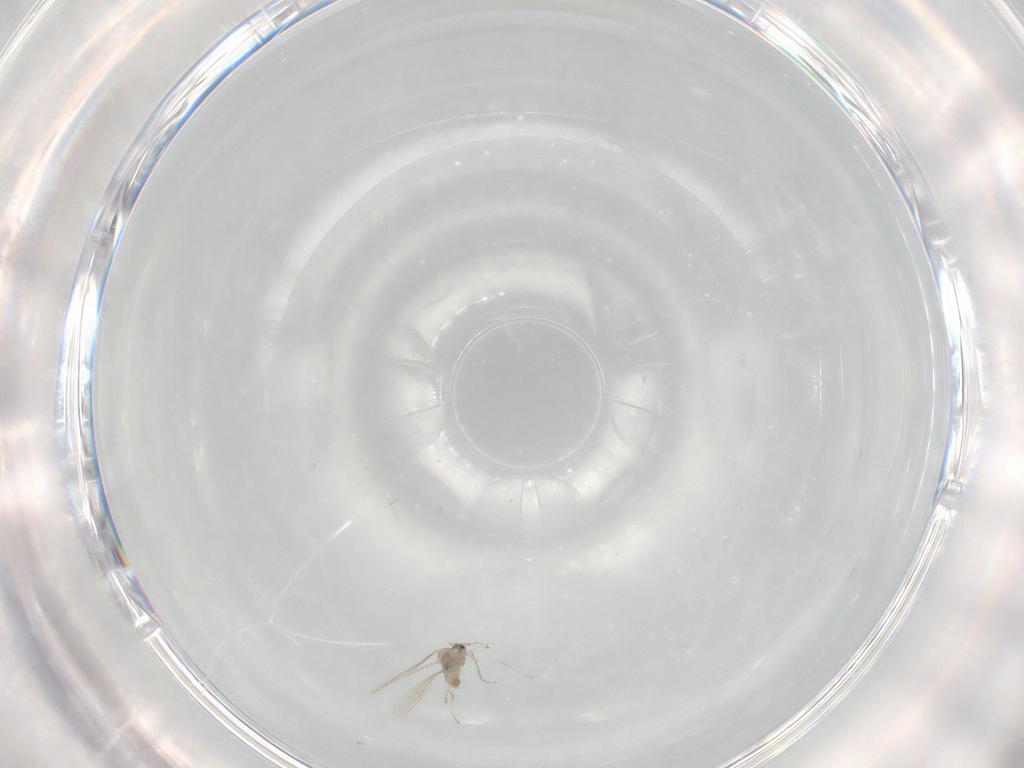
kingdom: Animalia
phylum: Arthropoda
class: Insecta
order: Diptera
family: Cecidomyiidae
